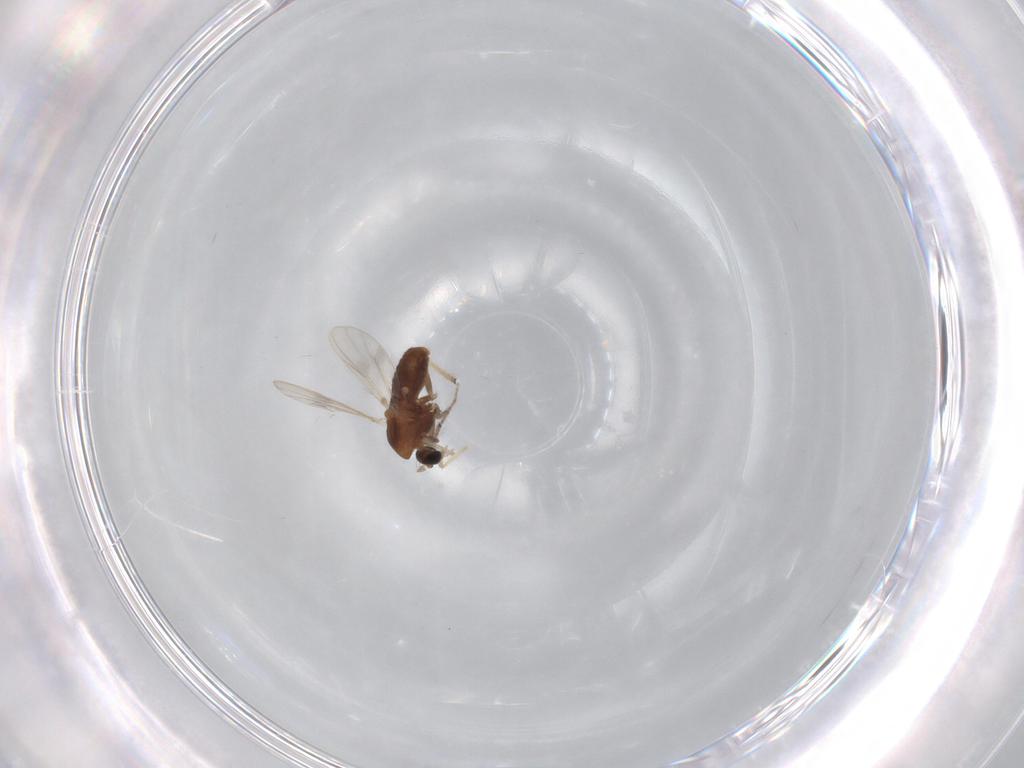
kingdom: Animalia
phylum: Arthropoda
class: Insecta
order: Diptera
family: Chironomidae
